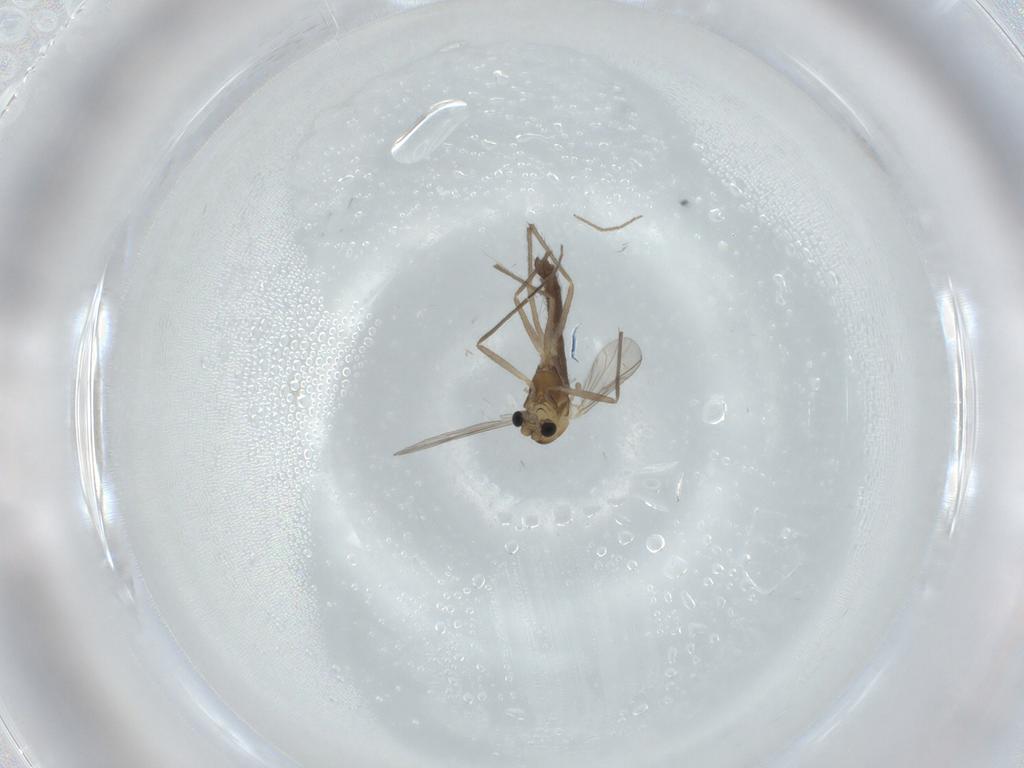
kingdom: Animalia
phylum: Arthropoda
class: Insecta
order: Diptera
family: Chironomidae
